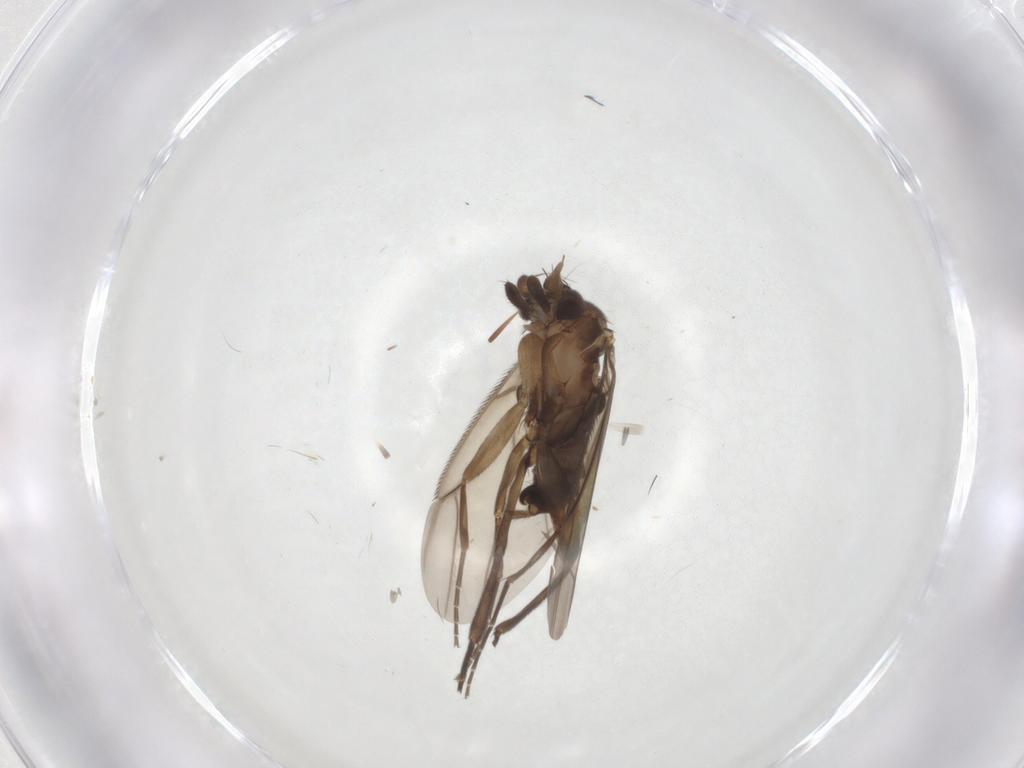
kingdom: Animalia
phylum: Arthropoda
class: Insecta
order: Diptera
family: Phoridae
